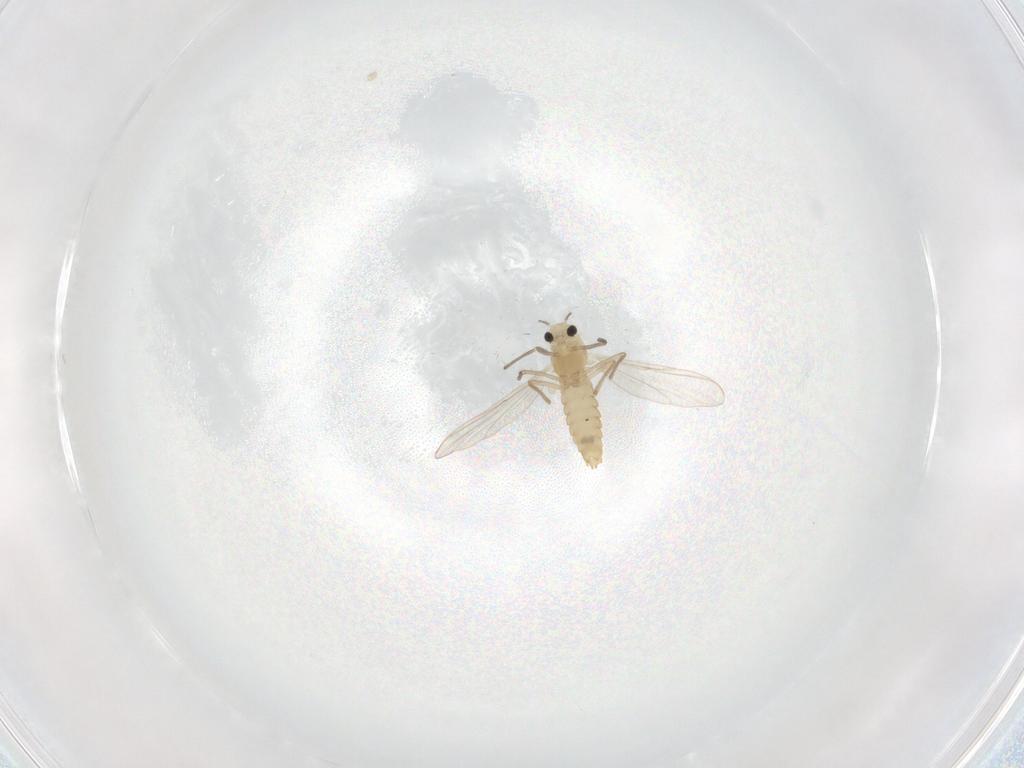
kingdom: Animalia
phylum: Arthropoda
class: Insecta
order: Diptera
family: Chironomidae
